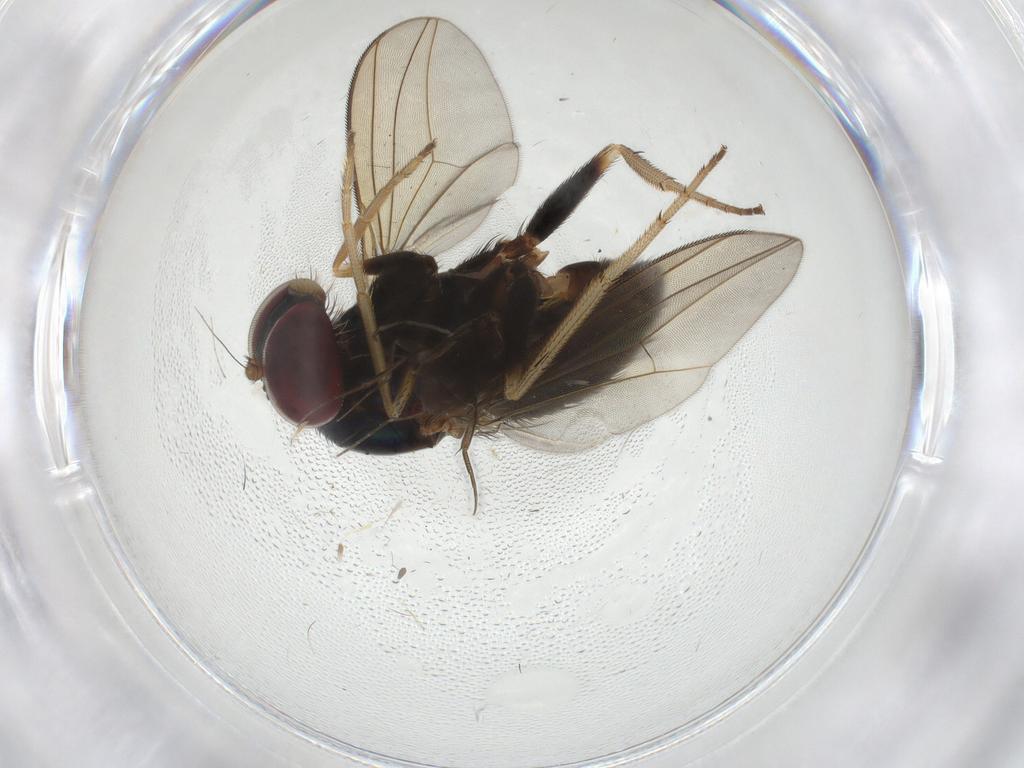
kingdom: Animalia
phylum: Arthropoda
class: Insecta
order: Diptera
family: Dolichopodidae
